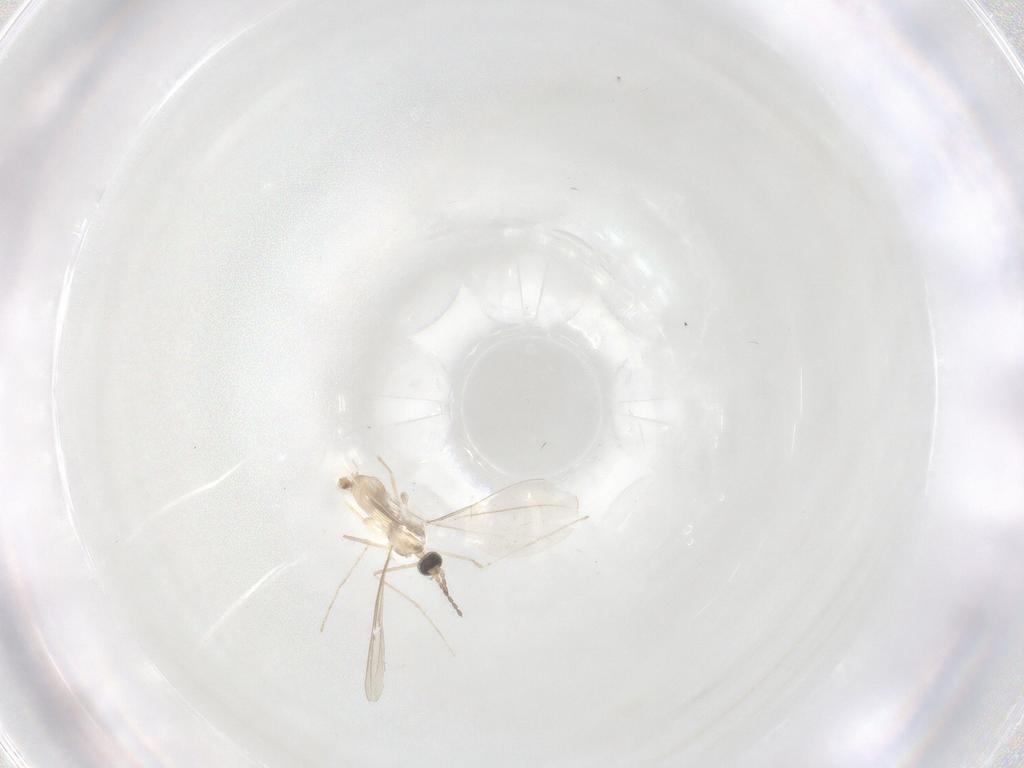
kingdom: Animalia
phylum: Arthropoda
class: Insecta
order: Diptera
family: Cecidomyiidae
